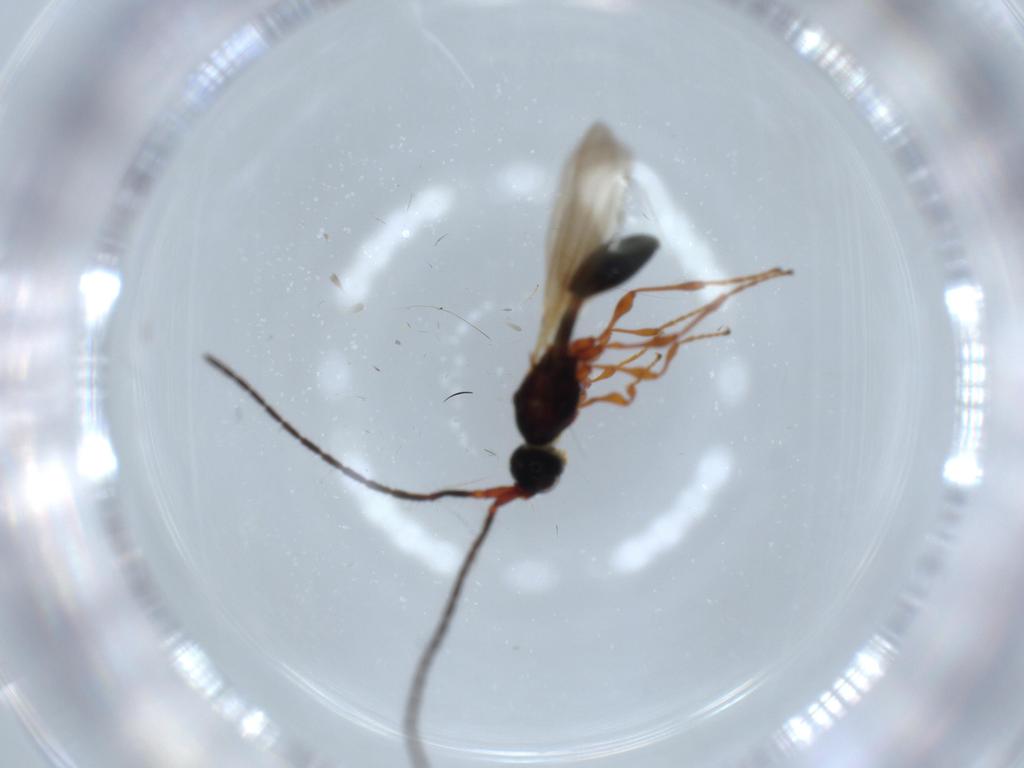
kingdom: Animalia
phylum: Arthropoda
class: Insecta
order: Hymenoptera
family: Diapriidae
